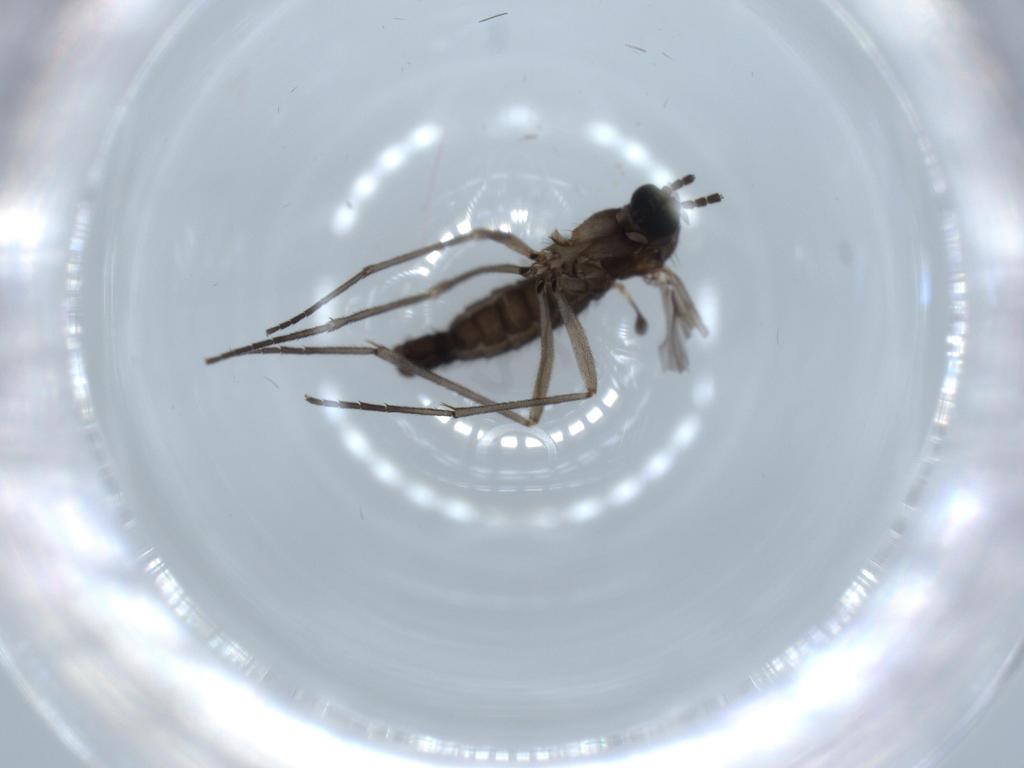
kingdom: Animalia
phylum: Arthropoda
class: Insecta
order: Diptera
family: Sciaridae
